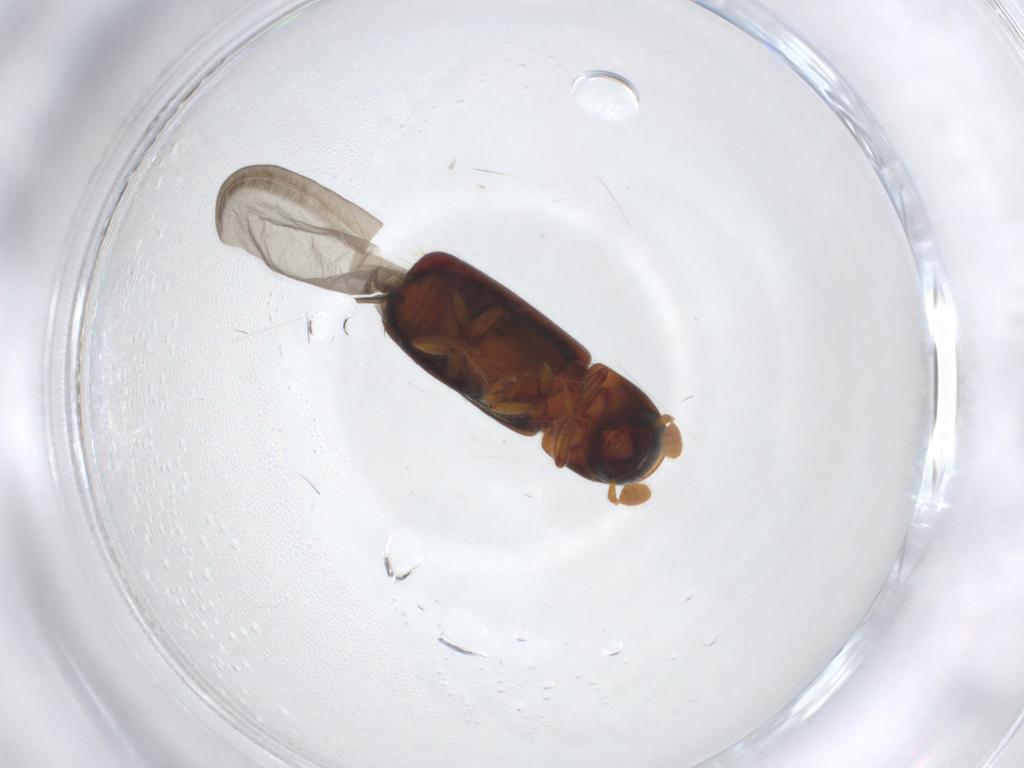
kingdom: Animalia
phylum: Arthropoda
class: Insecta
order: Coleoptera
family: Curculionidae
